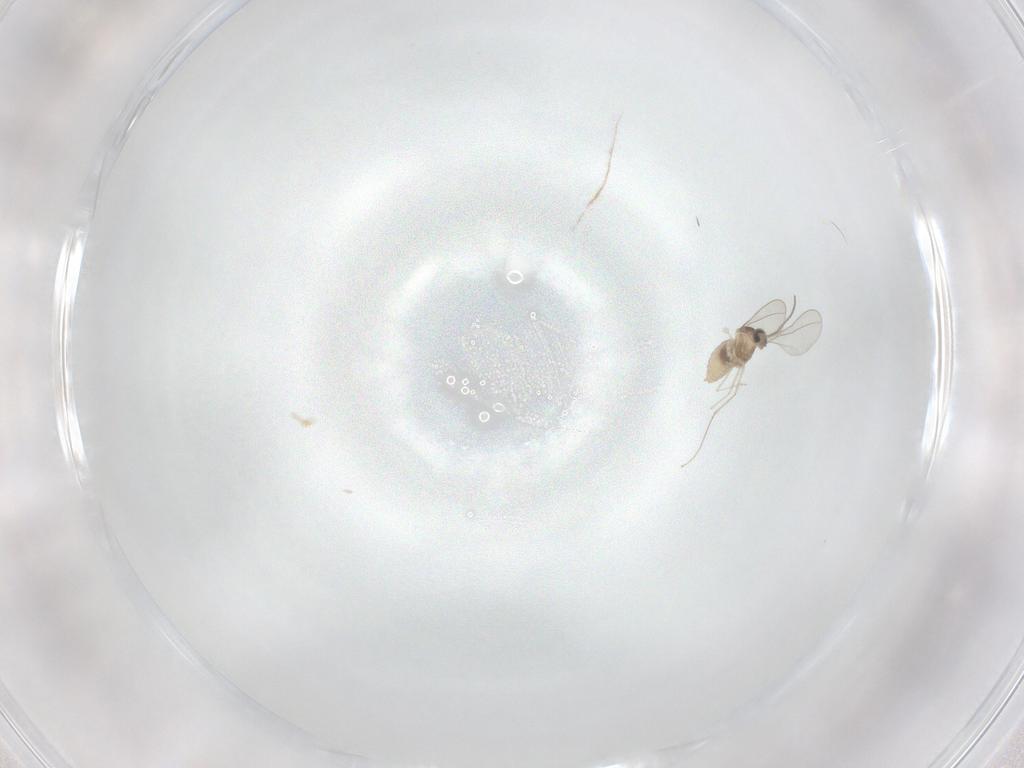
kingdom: Animalia
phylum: Arthropoda
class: Insecta
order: Diptera
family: Cecidomyiidae
